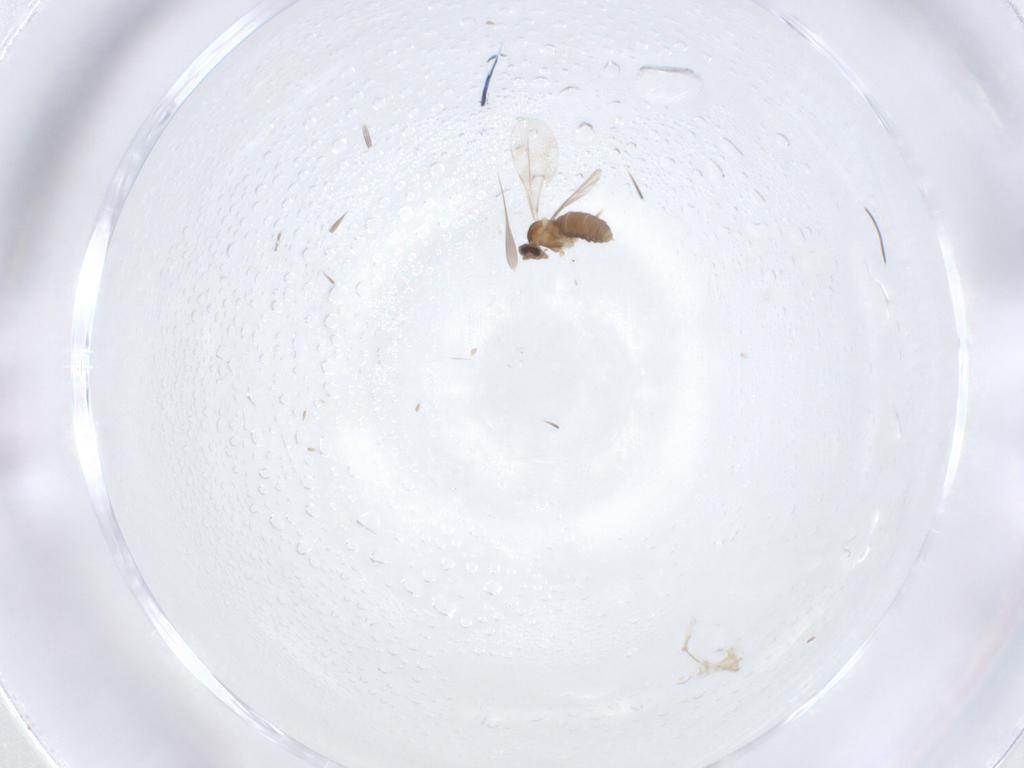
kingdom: Animalia
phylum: Arthropoda
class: Insecta
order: Diptera
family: Cecidomyiidae
